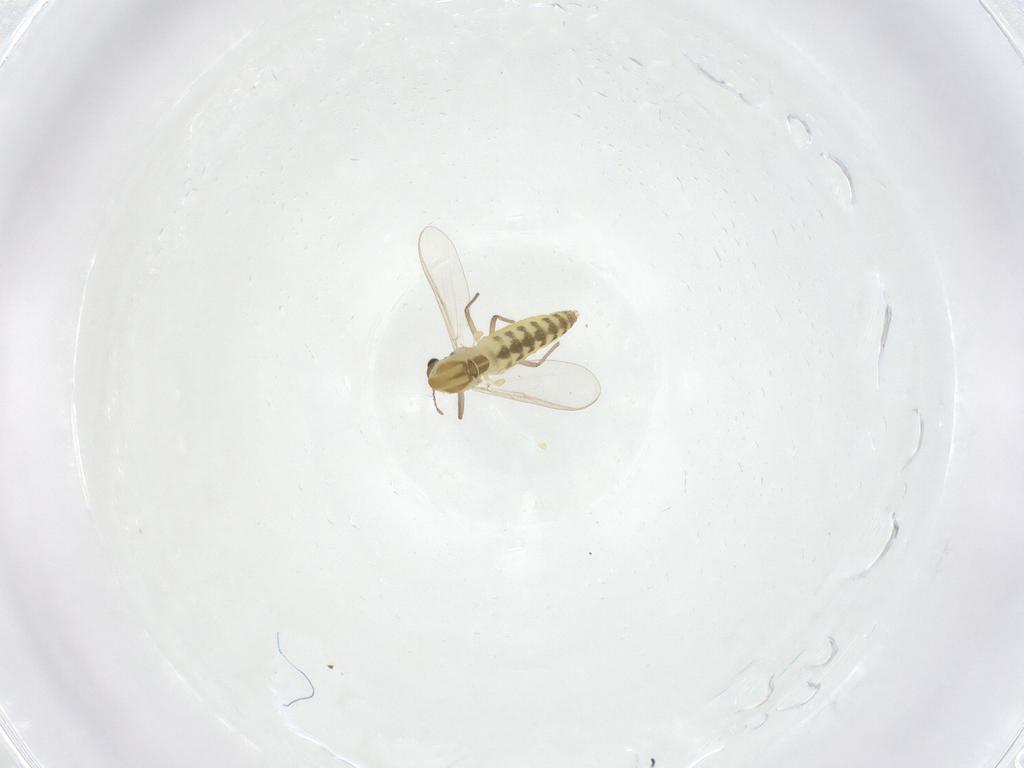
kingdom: Animalia
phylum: Arthropoda
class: Insecta
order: Diptera
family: Chironomidae
